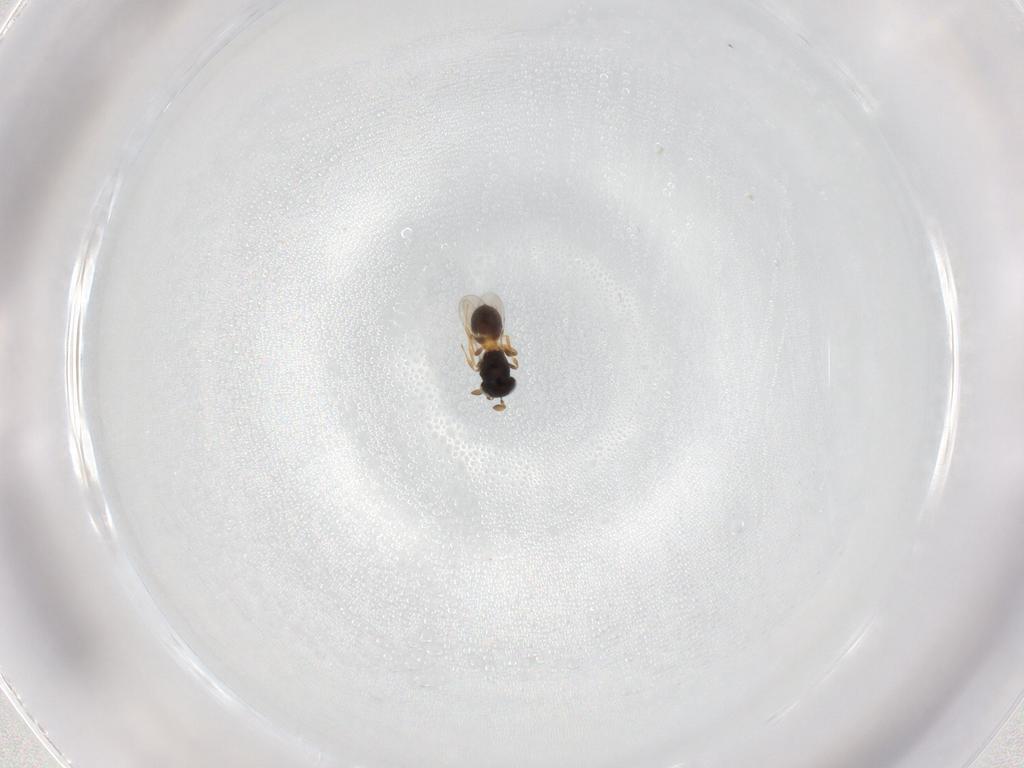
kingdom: Animalia
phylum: Arthropoda
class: Insecta
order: Hymenoptera
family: Scelionidae
